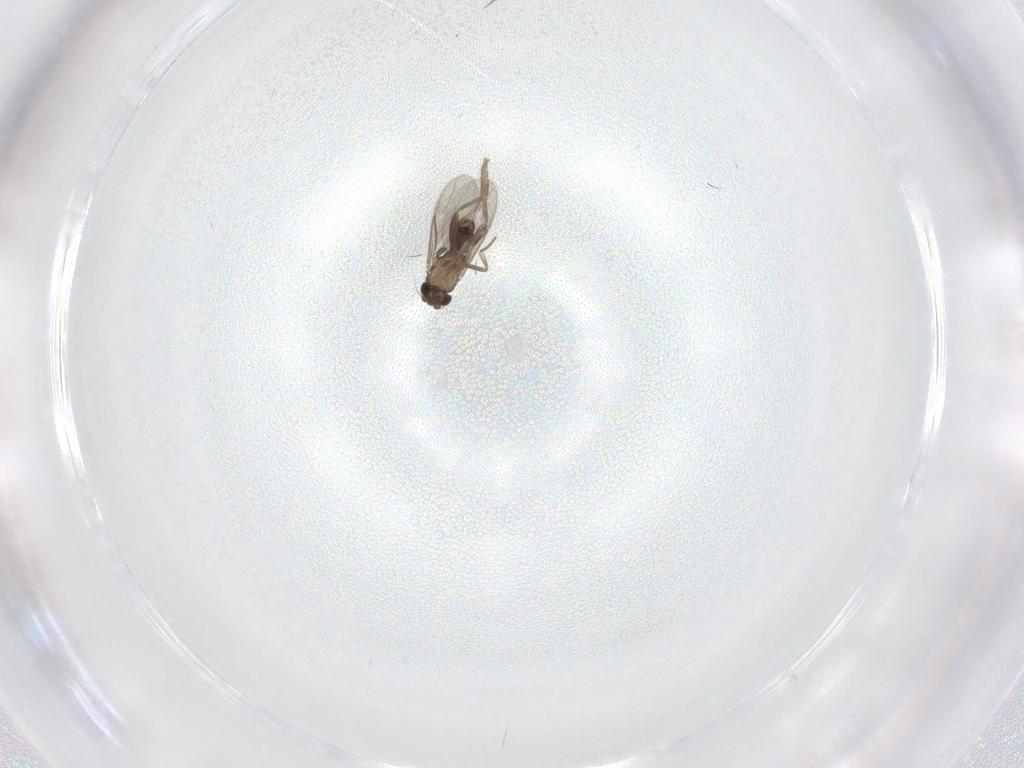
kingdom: Animalia
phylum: Arthropoda
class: Insecta
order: Diptera
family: Sciaridae
